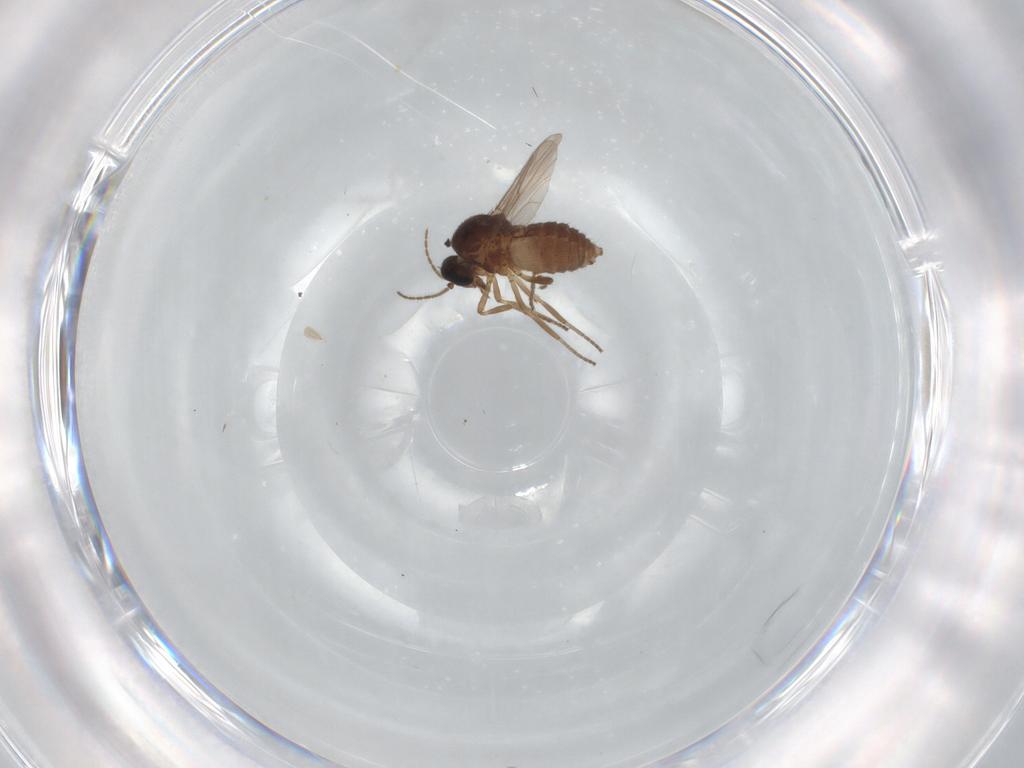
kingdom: Animalia
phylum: Arthropoda
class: Insecta
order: Diptera
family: Ceratopogonidae
